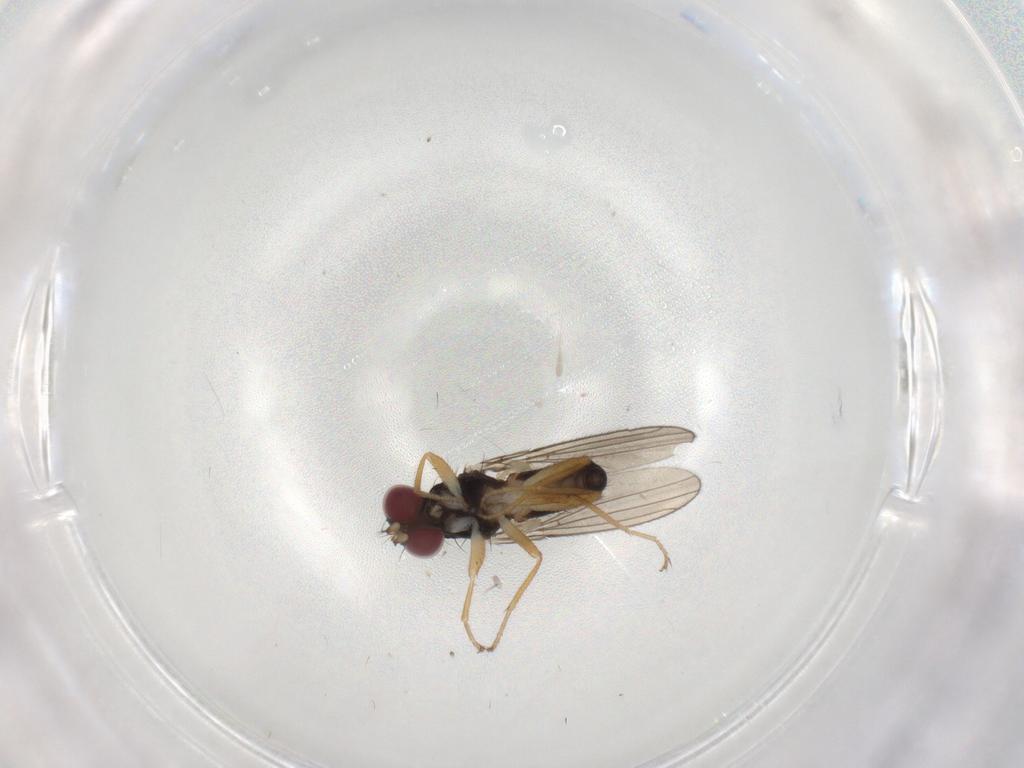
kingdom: Animalia
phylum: Arthropoda
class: Insecta
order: Diptera
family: Anthomyzidae
